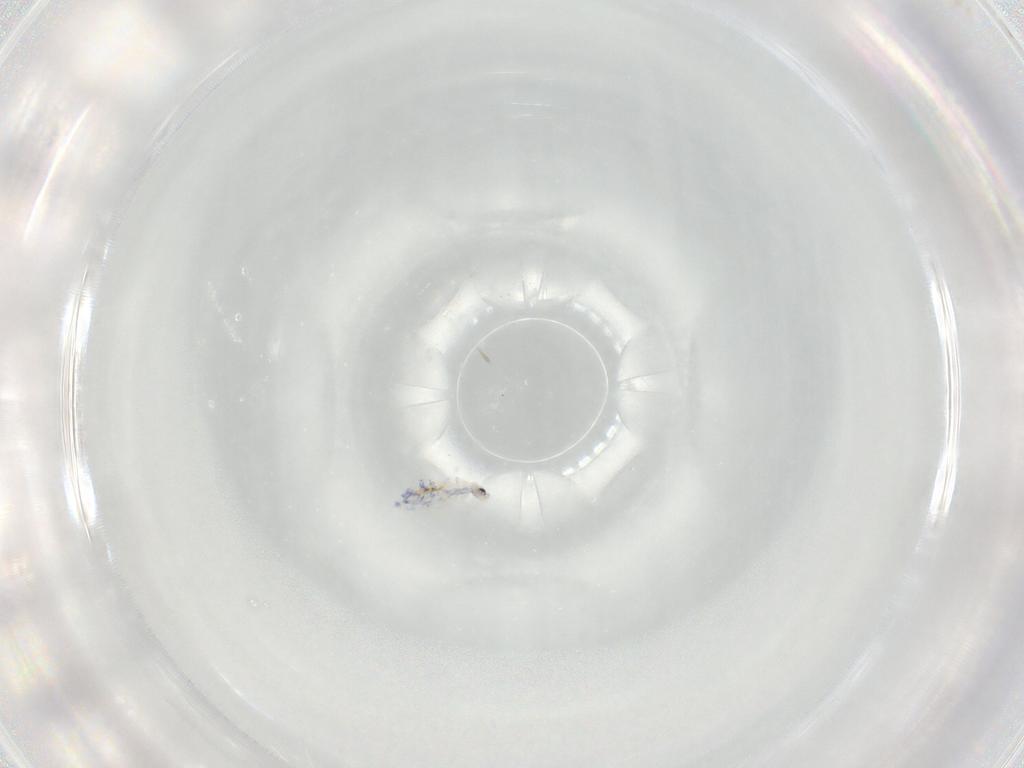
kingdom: Animalia
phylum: Arthropoda
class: Collembola
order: Entomobryomorpha
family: Entomobryidae
